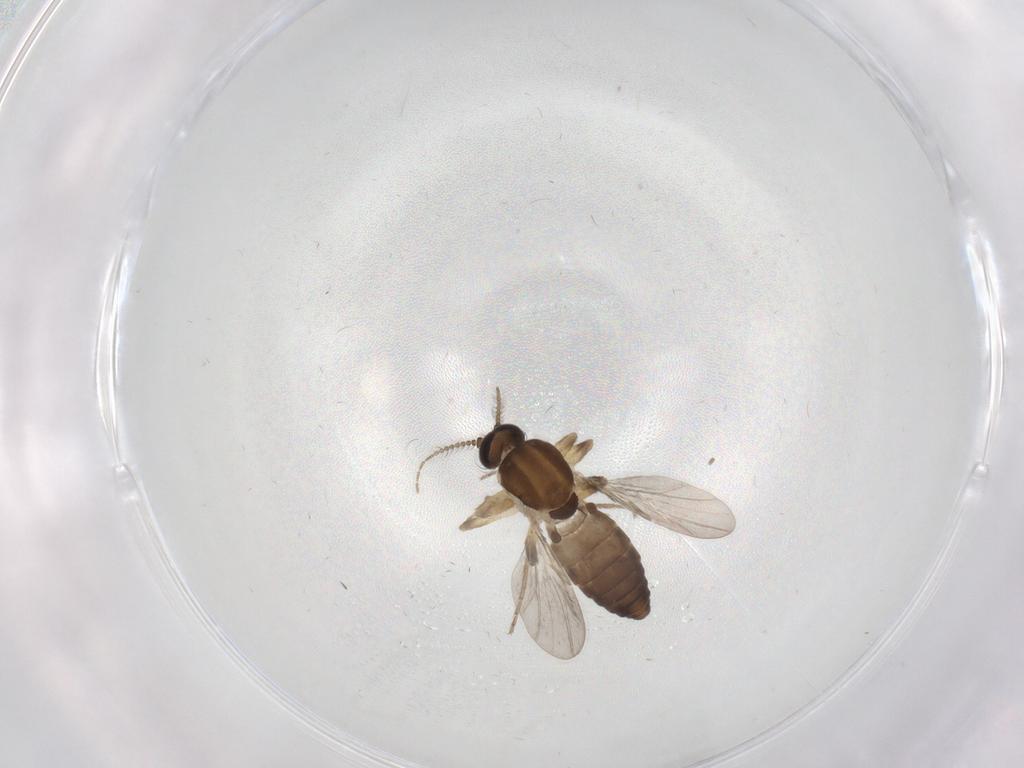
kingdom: Animalia
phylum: Arthropoda
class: Insecta
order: Diptera
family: Ceratopogonidae
